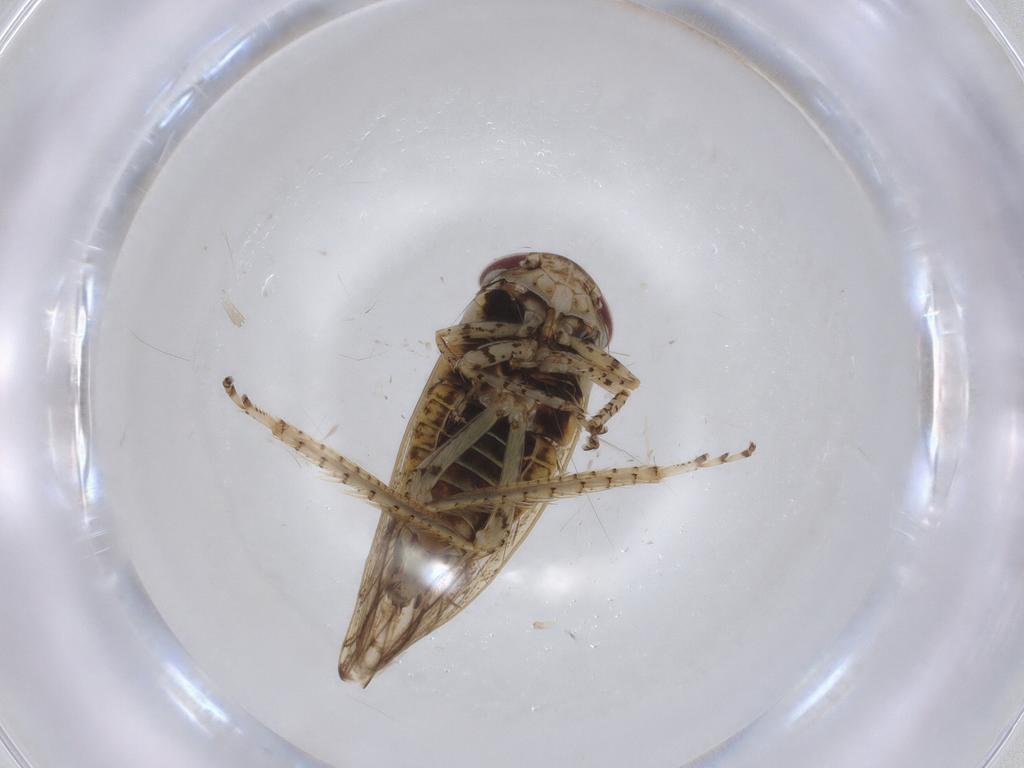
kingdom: Animalia
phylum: Arthropoda
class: Insecta
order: Hemiptera
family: Cicadellidae
